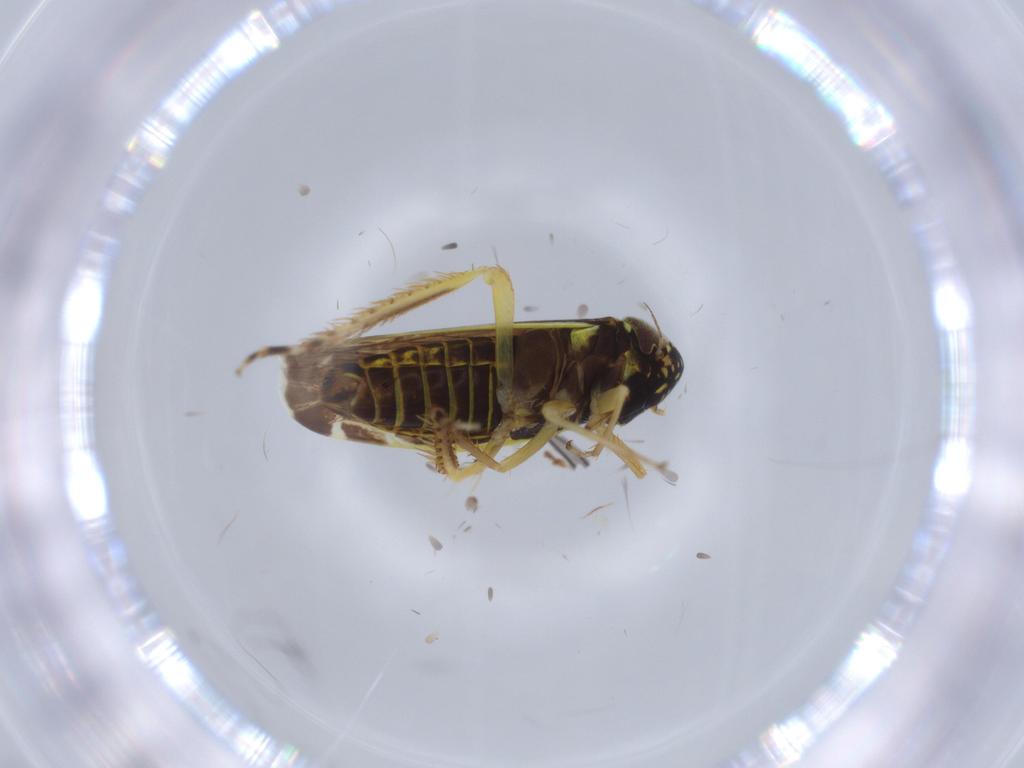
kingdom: Animalia
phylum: Arthropoda
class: Insecta
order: Hemiptera
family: Cicadellidae
